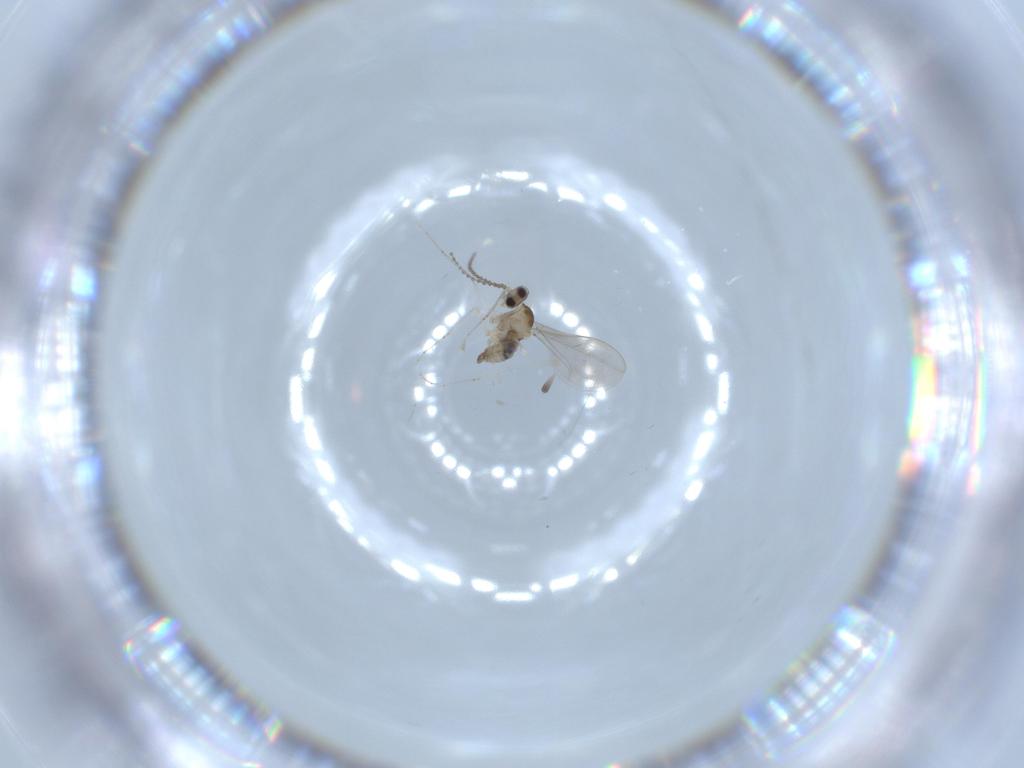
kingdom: Animalia
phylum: Arthropoda
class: Insecta
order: Diptera
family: Cecidomyiidae
